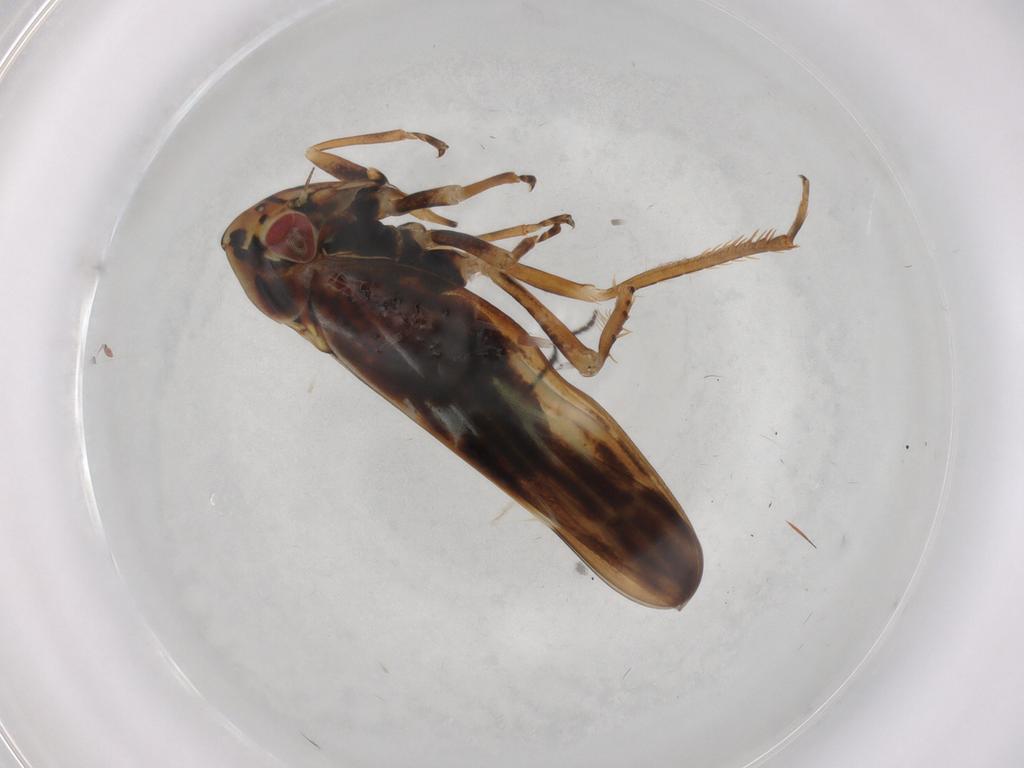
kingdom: Animalia
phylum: Arthropoda
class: Insecta
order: Hemiptera
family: Cicadellidae
